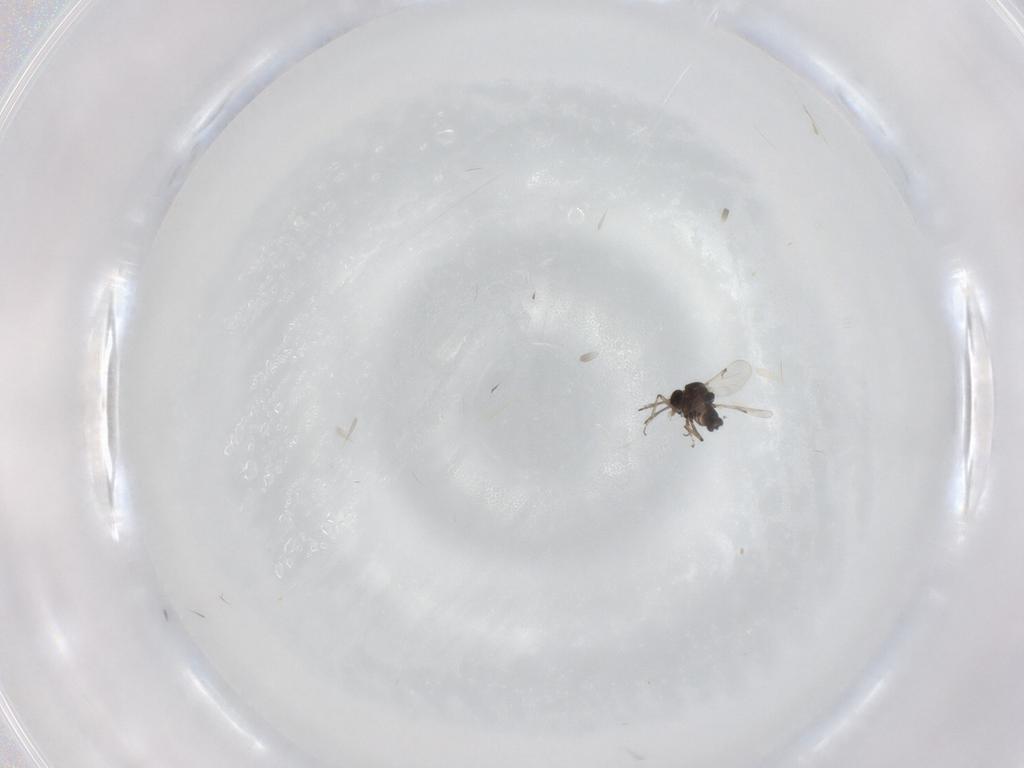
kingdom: Animalia
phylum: Arthropoda
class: Insecta
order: Diptera
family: Ceratopogonidae
